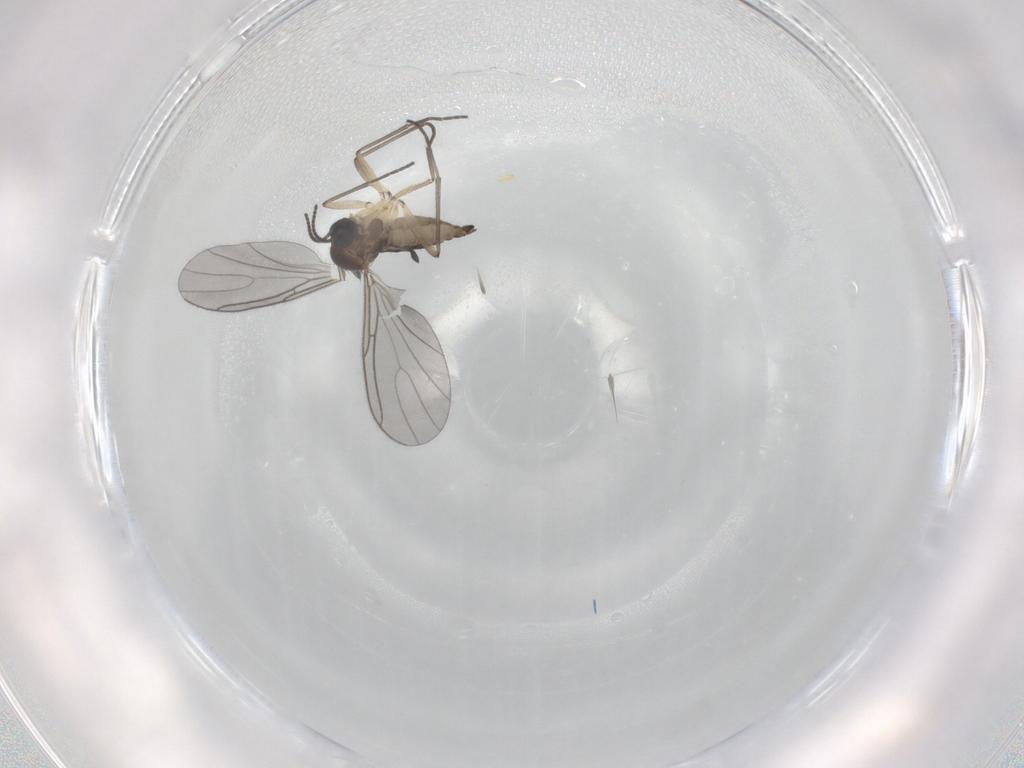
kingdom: Animalia
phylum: Arthropoda
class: Insecta
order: Diptera
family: Sciaridae
